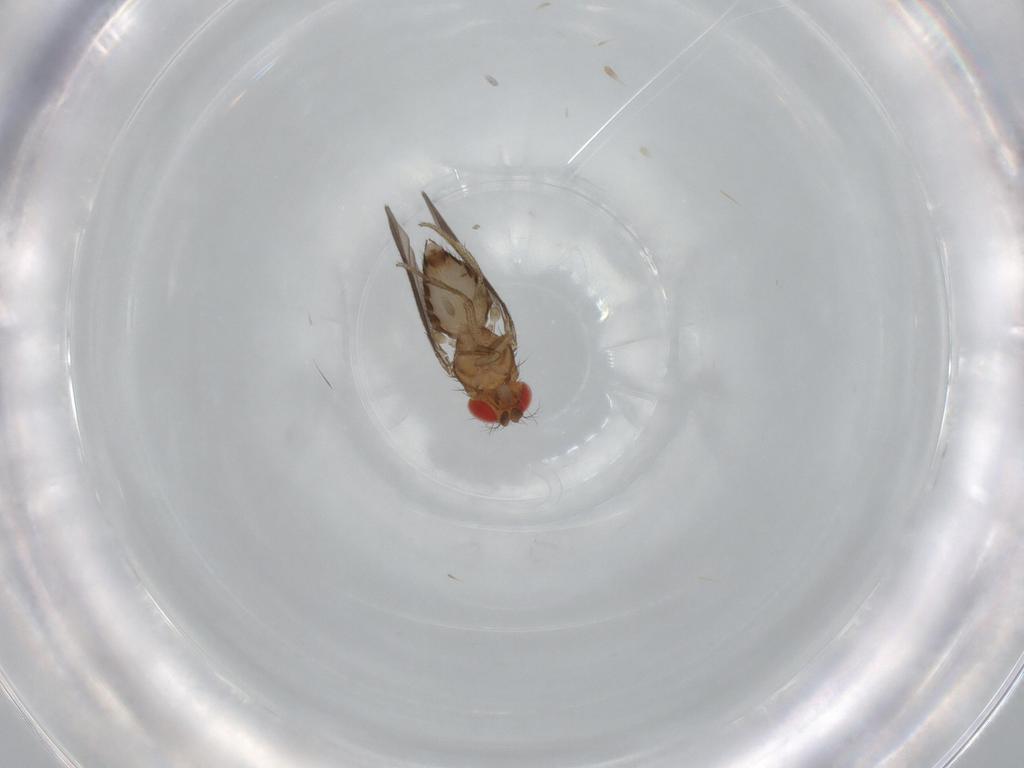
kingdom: Animalia
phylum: Arthropoda
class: Insecta
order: Diptera
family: Drosophilidae
